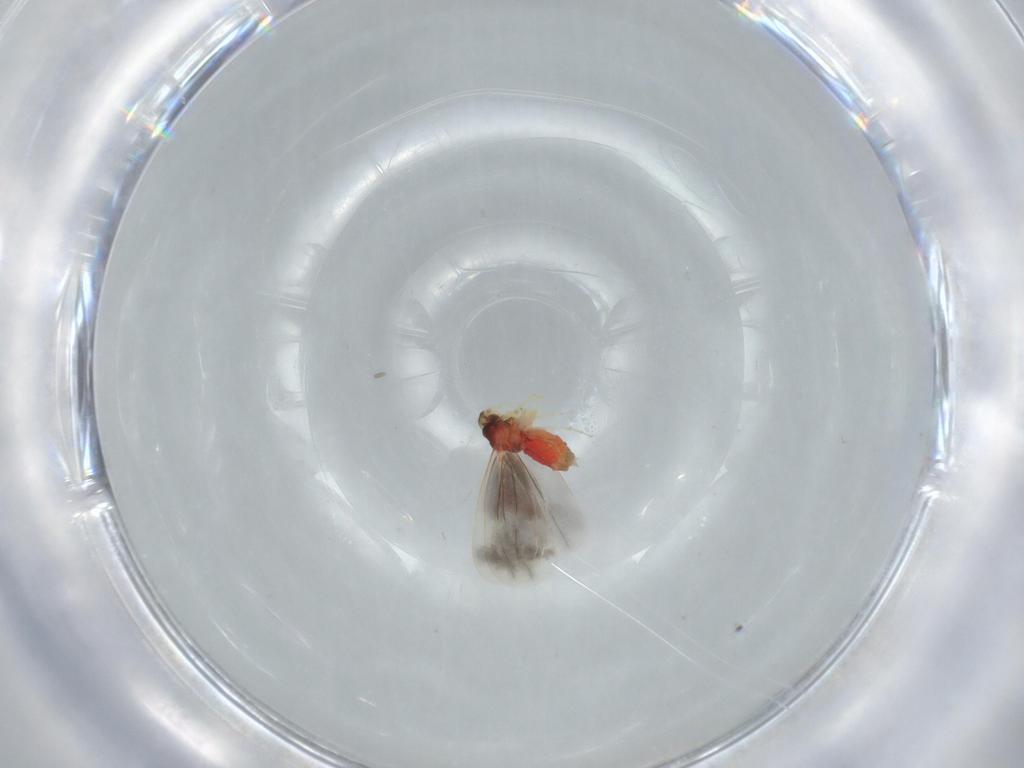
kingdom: Animalia
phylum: Arthropoda
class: Insecta
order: Hemiptera
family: Aleyrodidae
